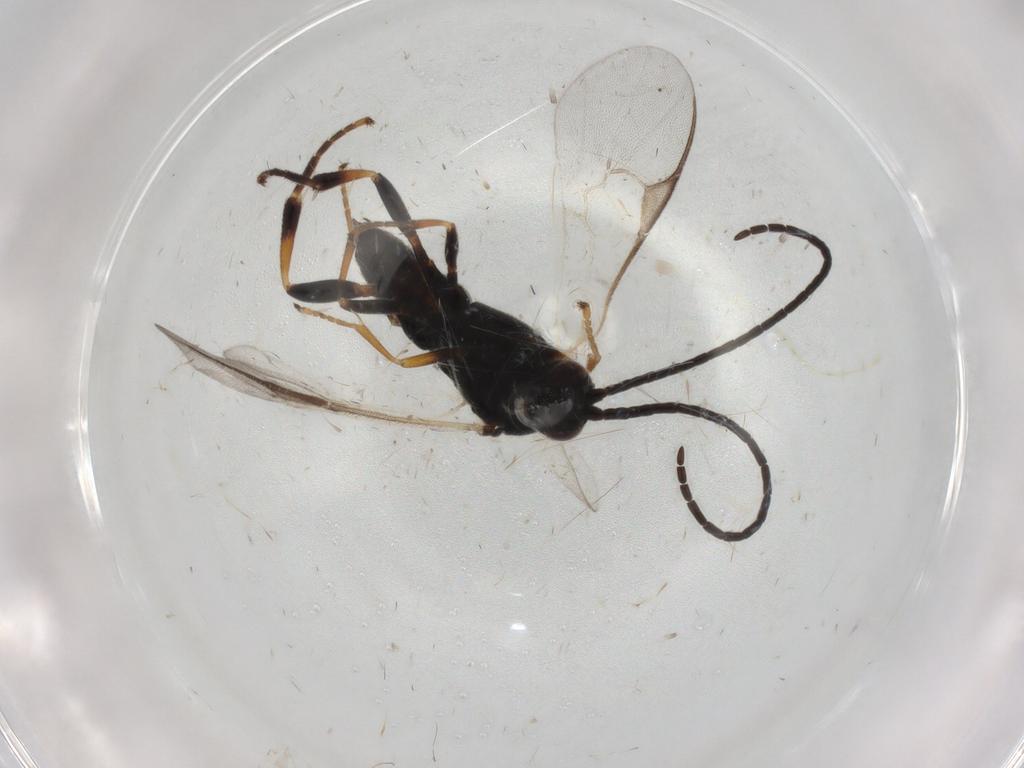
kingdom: Animalia
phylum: Arthropoda
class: Insecta
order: Hymenoptera
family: Braconidae
